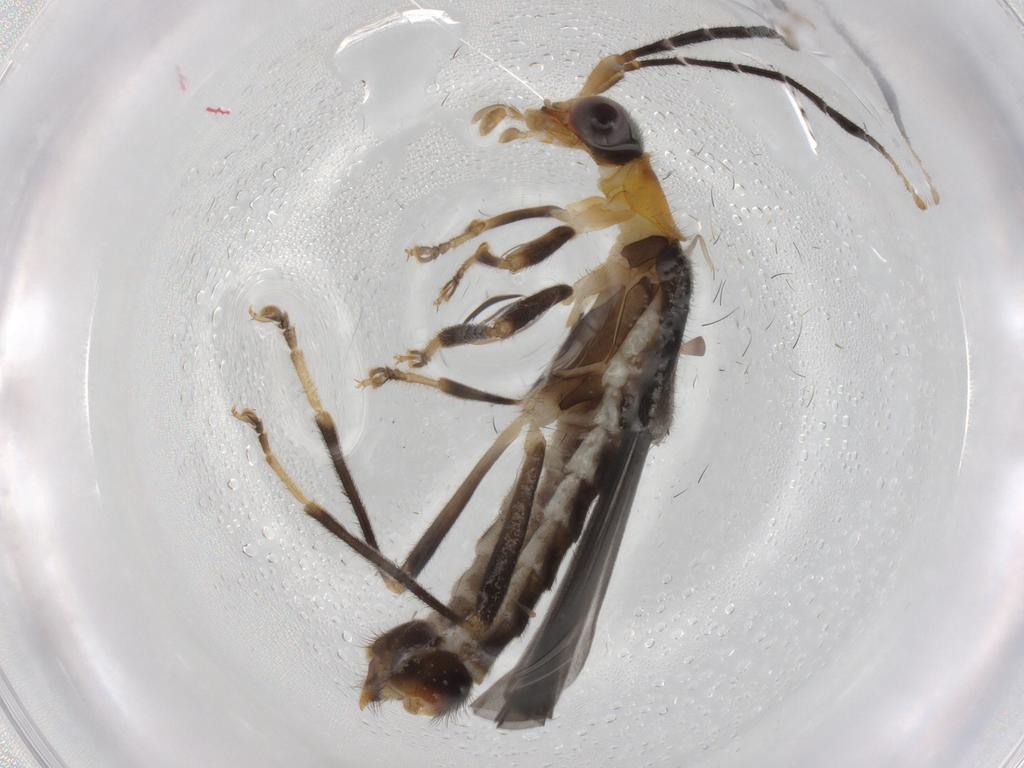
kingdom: Animalia
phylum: Arthropoda
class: Insecta
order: Coleoptera
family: Cantharidae
